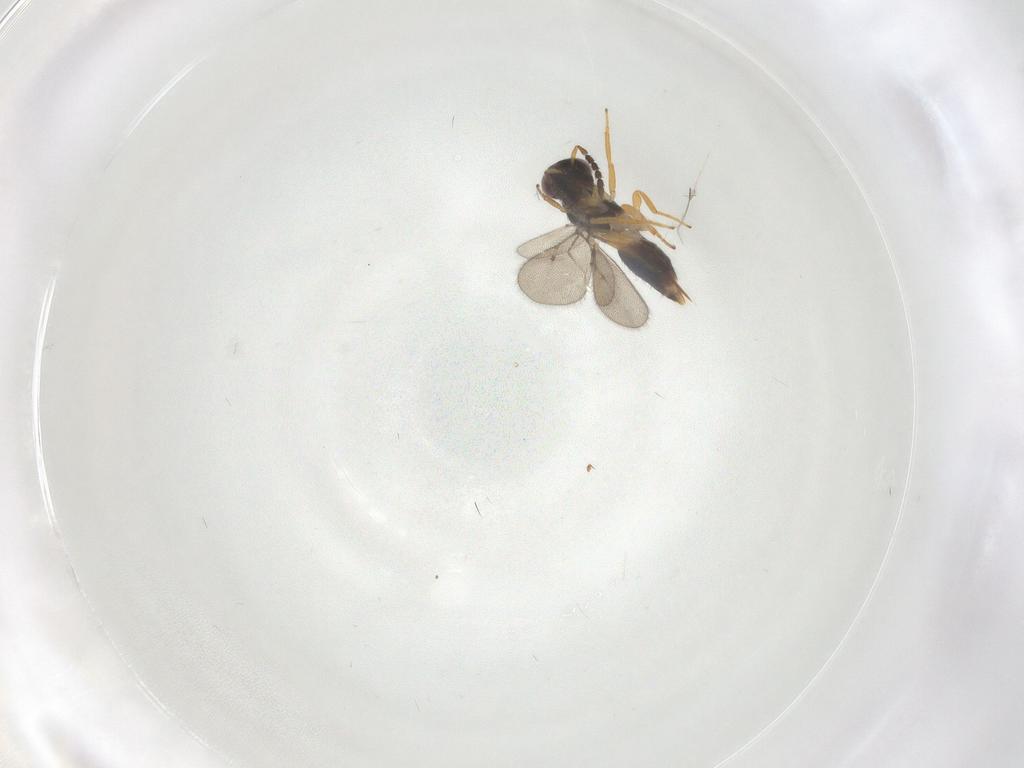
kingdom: Animalia
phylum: Arthropoda
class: Insecta
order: Hymenoptera
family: Eulophidae
